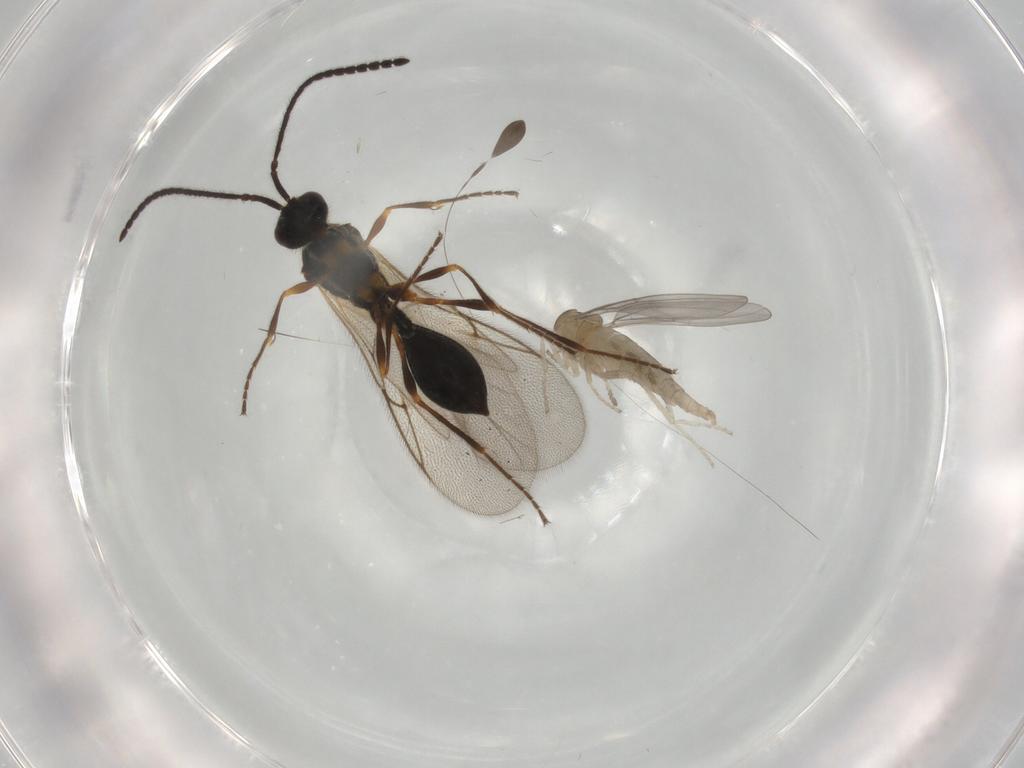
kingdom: Animalia
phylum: Arthropoda
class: Insecta
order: Diptera
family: Cecidomyiidae
